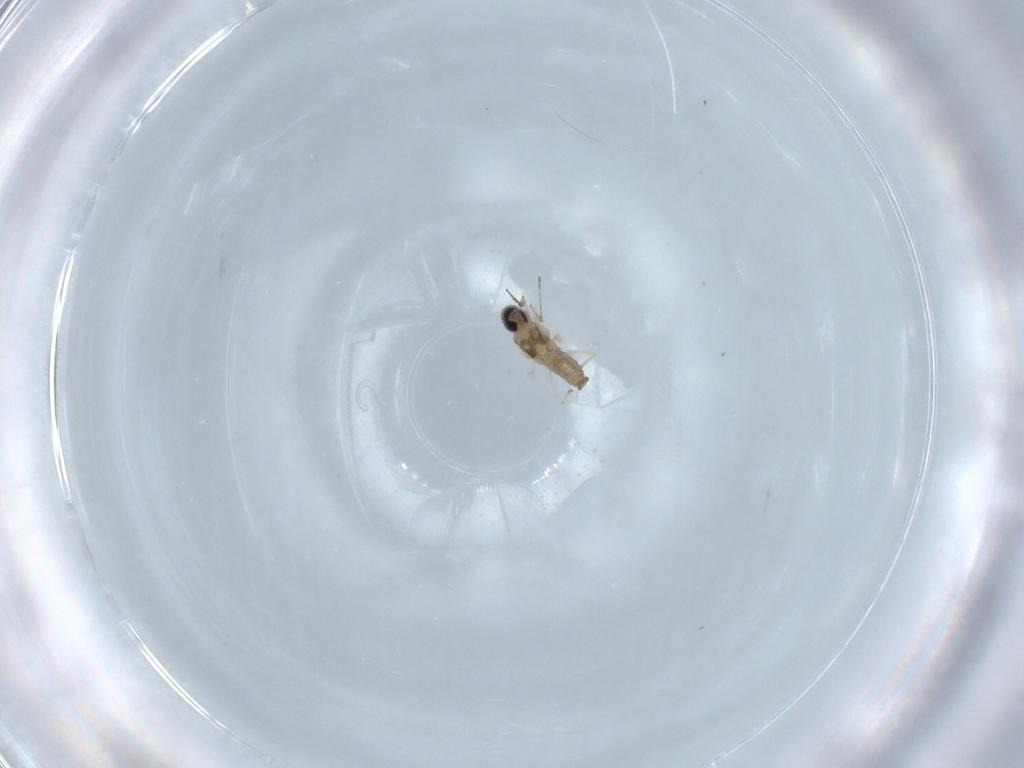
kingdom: Animalia
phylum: Arthropoda
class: Insecta
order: Diptera
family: Cecidomyiidae
